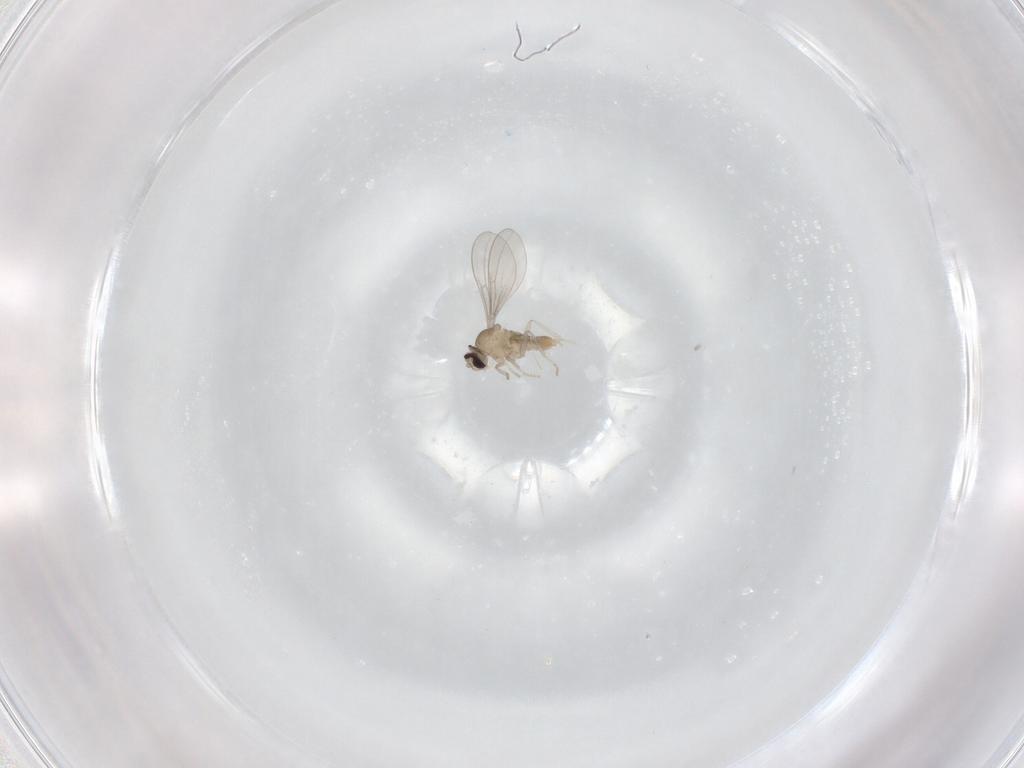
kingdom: Animalia
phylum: Arthropoda
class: Insecta
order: Diptera
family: Cecidomyiidae
